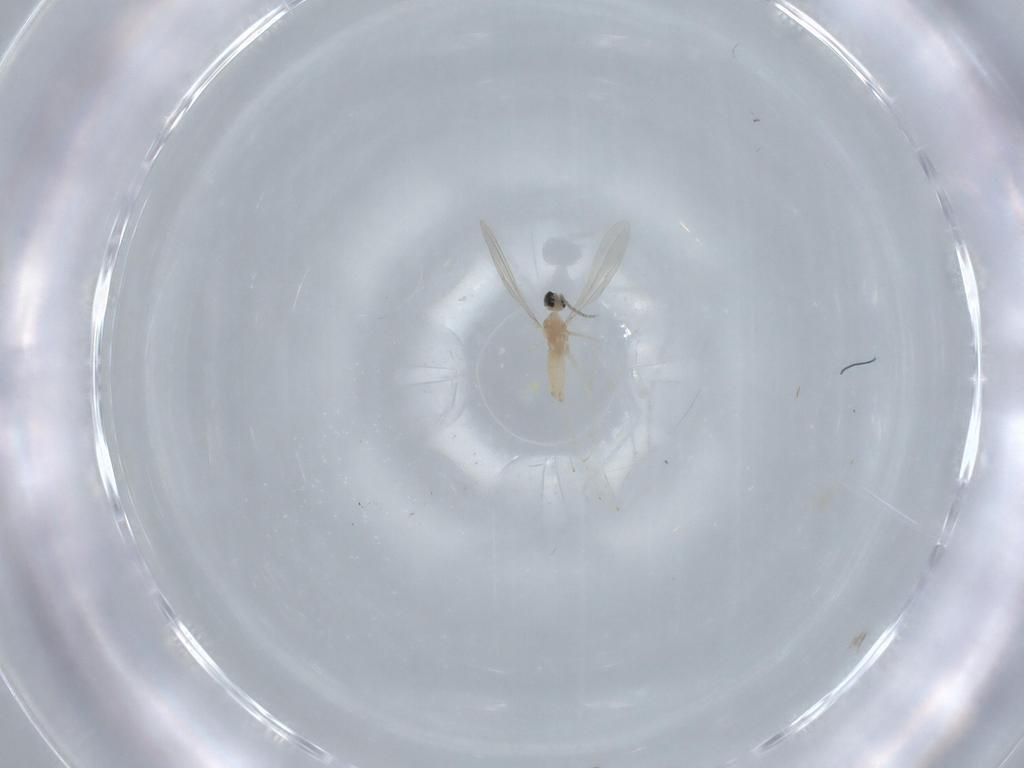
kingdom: Animalia
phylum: Arthropoda
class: Insecta
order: Diptera
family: Cecidomyiidae
